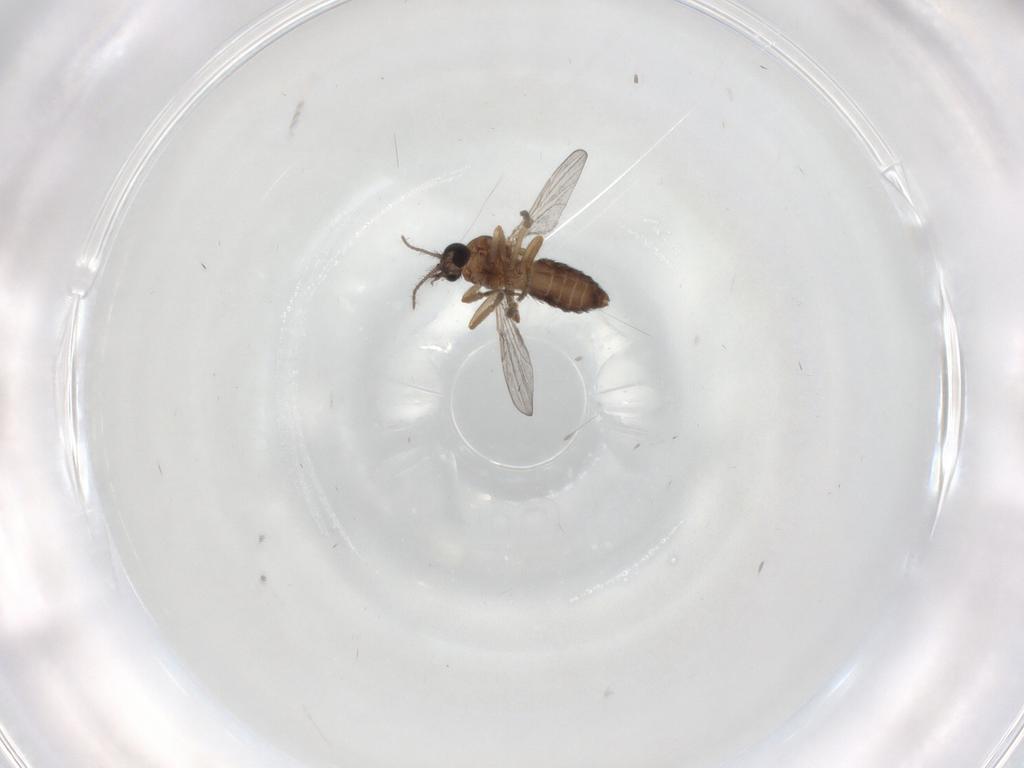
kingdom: Animalia
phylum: Arthropoda
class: Insecta
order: Diptera
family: Ceratopogonidae
